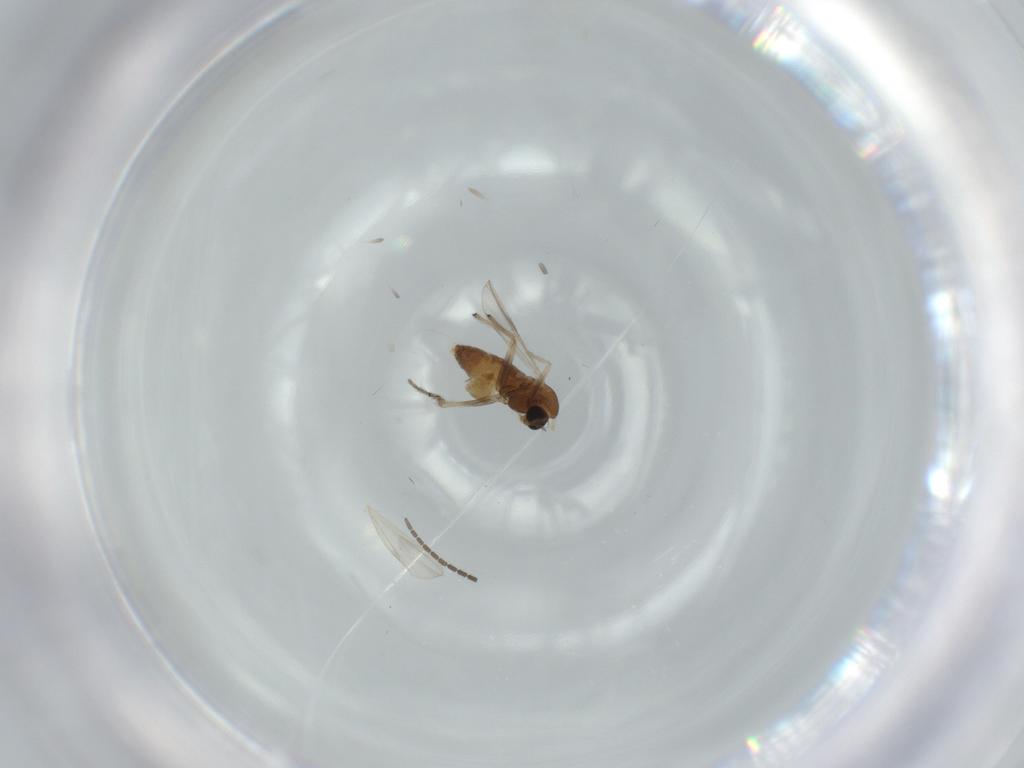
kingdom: Animalia
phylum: Arthropoda
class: Insecta
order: Diptera
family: Chironomidae
